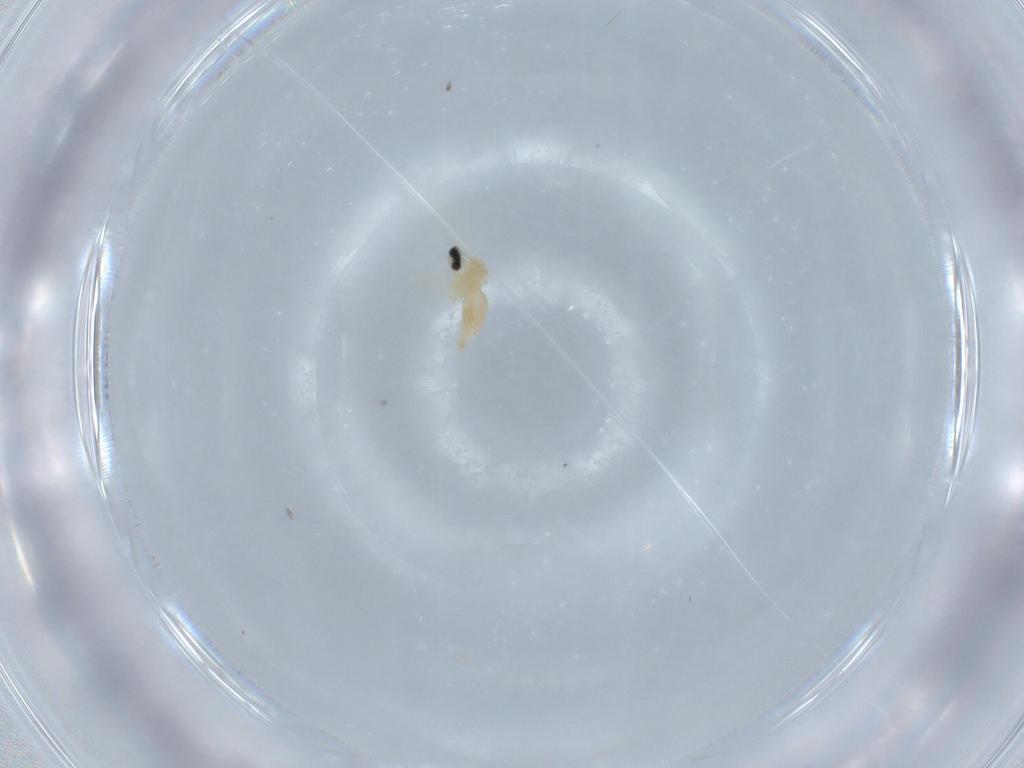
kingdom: Animalia
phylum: Arthropoda
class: Insecta
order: Diptera
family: Cecidomyiidae
